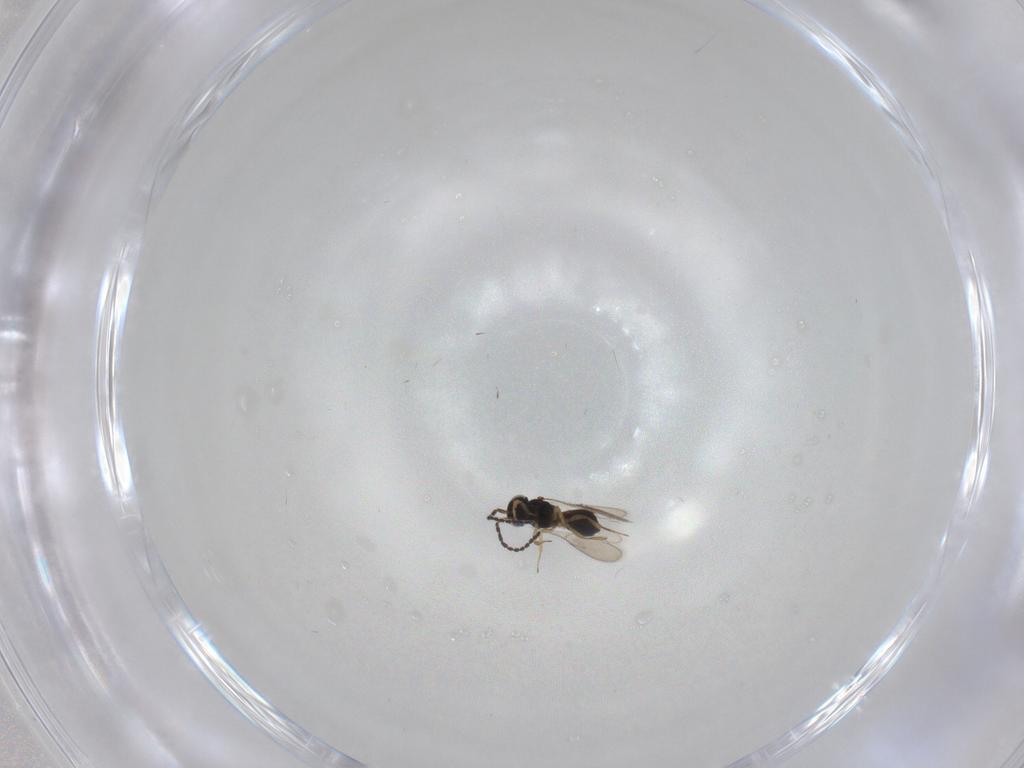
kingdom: Animalia
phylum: Arthropoda
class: Insecta
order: Hymenoptera
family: Scelionidae
